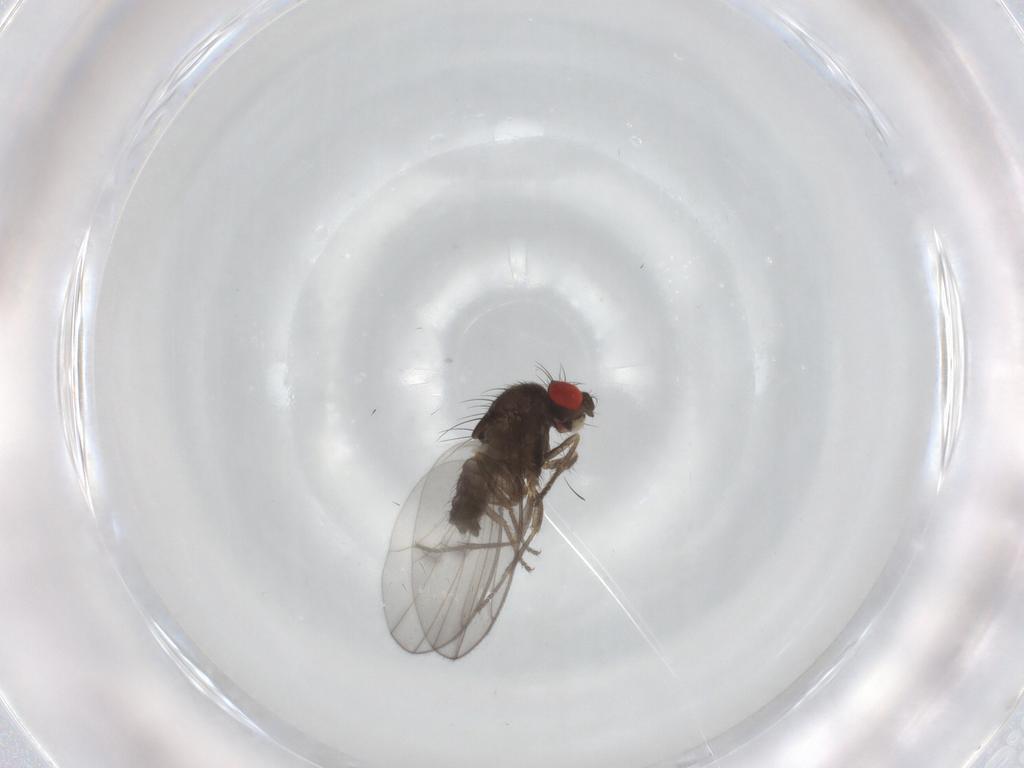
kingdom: Animalia
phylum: Arthropoda
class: Insecta
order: Diptera
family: Drosophilidae
